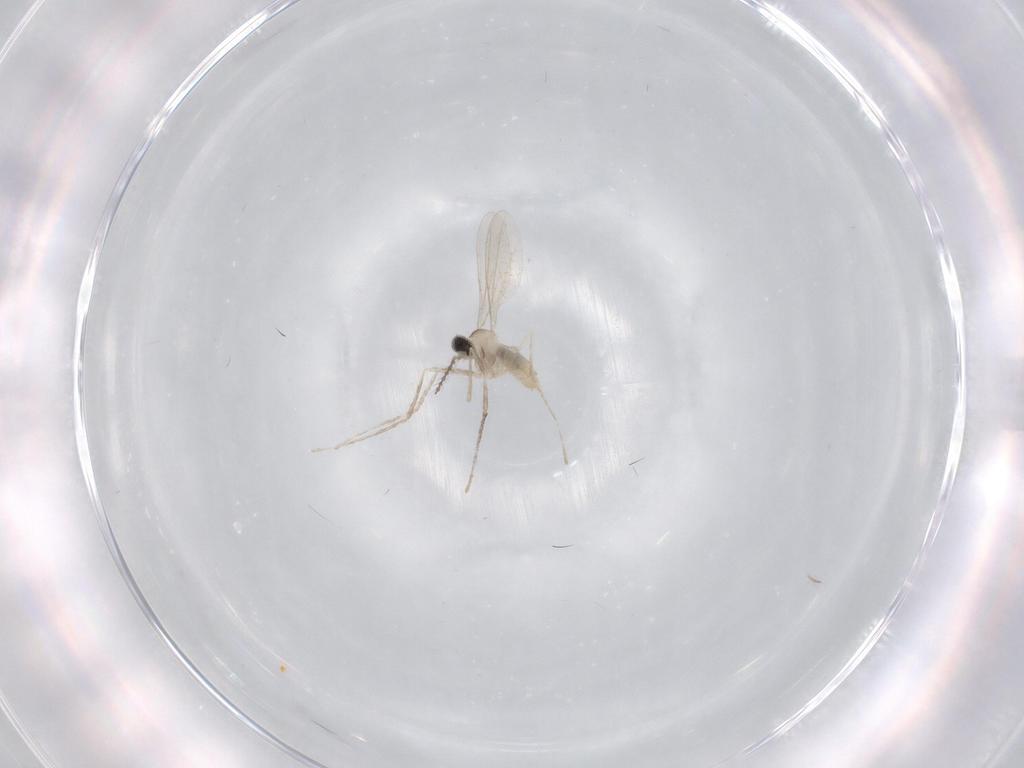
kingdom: Animalia
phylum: Arthropoda
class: Insecta
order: Diptera
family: Cecidomyiidae
